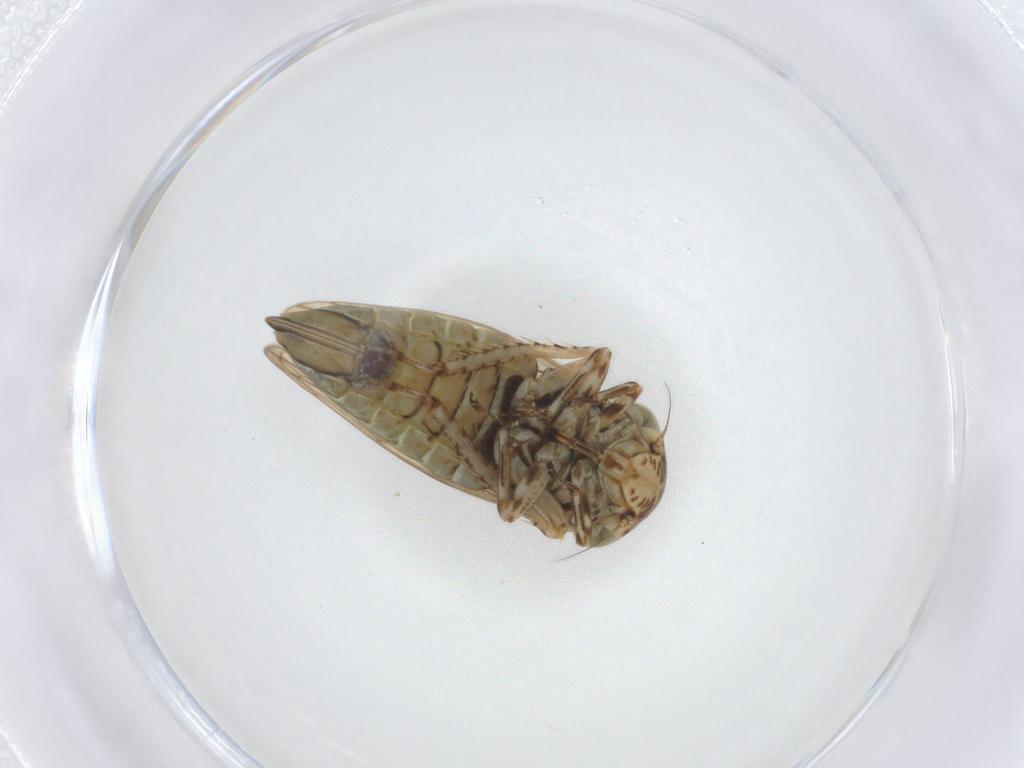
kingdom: Animalia
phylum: Arthropoda
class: Insecta
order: Hemiptera
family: Cicadellidae
